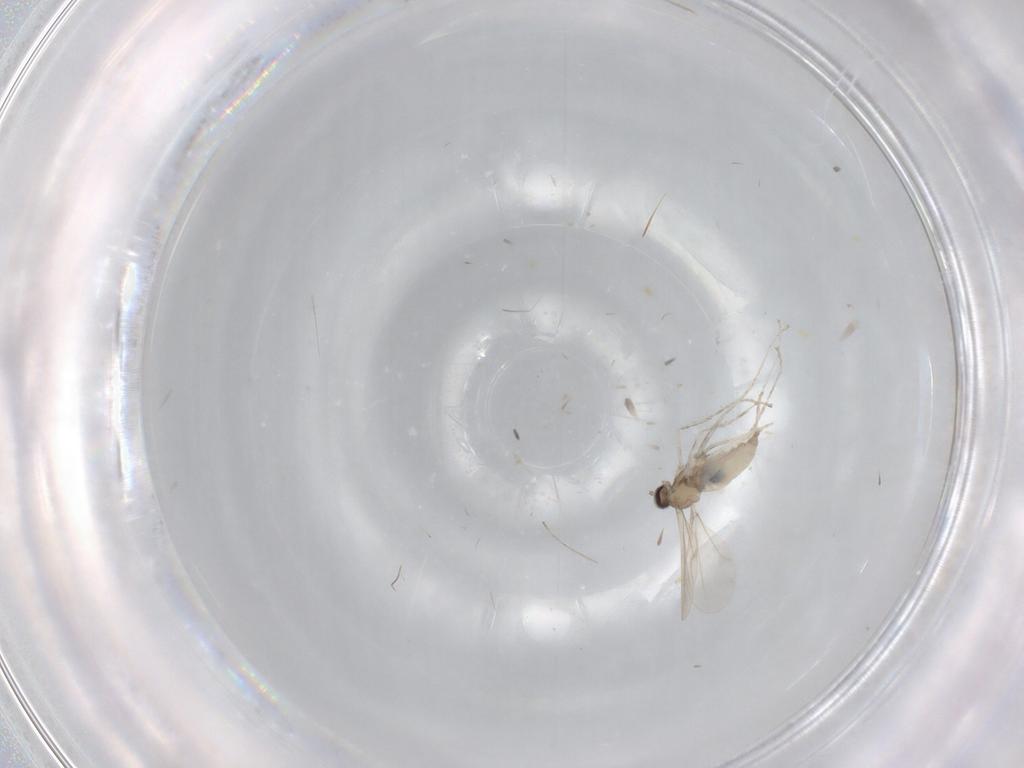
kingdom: Animalia
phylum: Arthropoda
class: Insecta
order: Diptera
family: Cecidomyiidae
